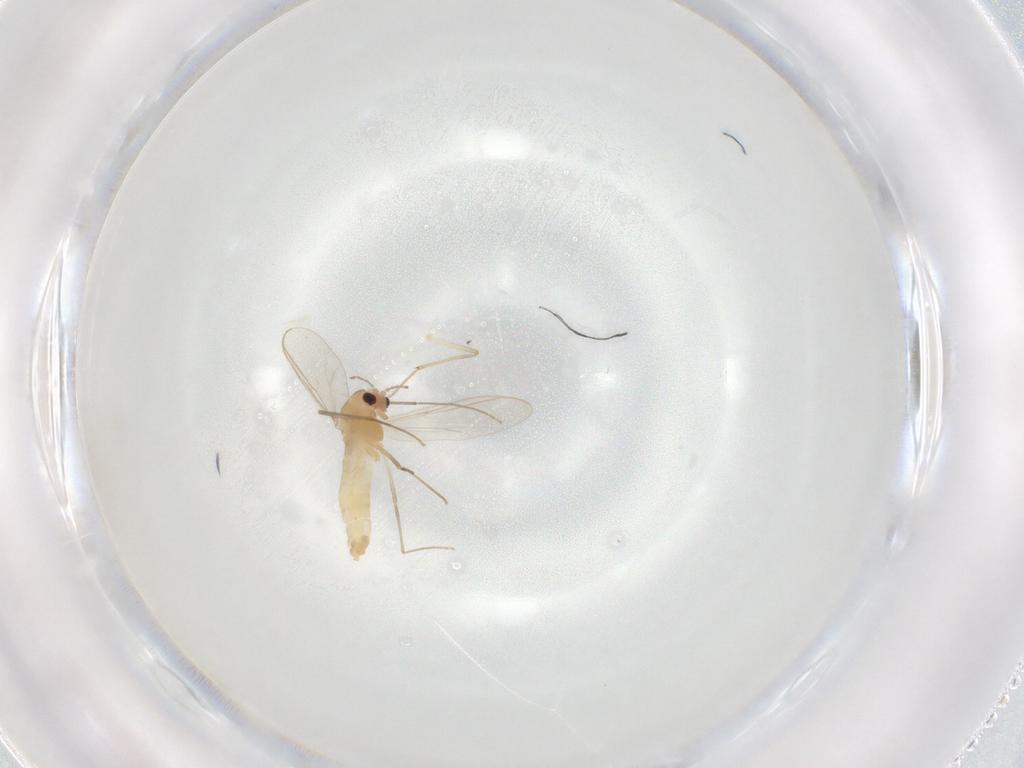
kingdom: Animalia
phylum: Arthropoda
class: Insecta
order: Diptera
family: Chironomidae
